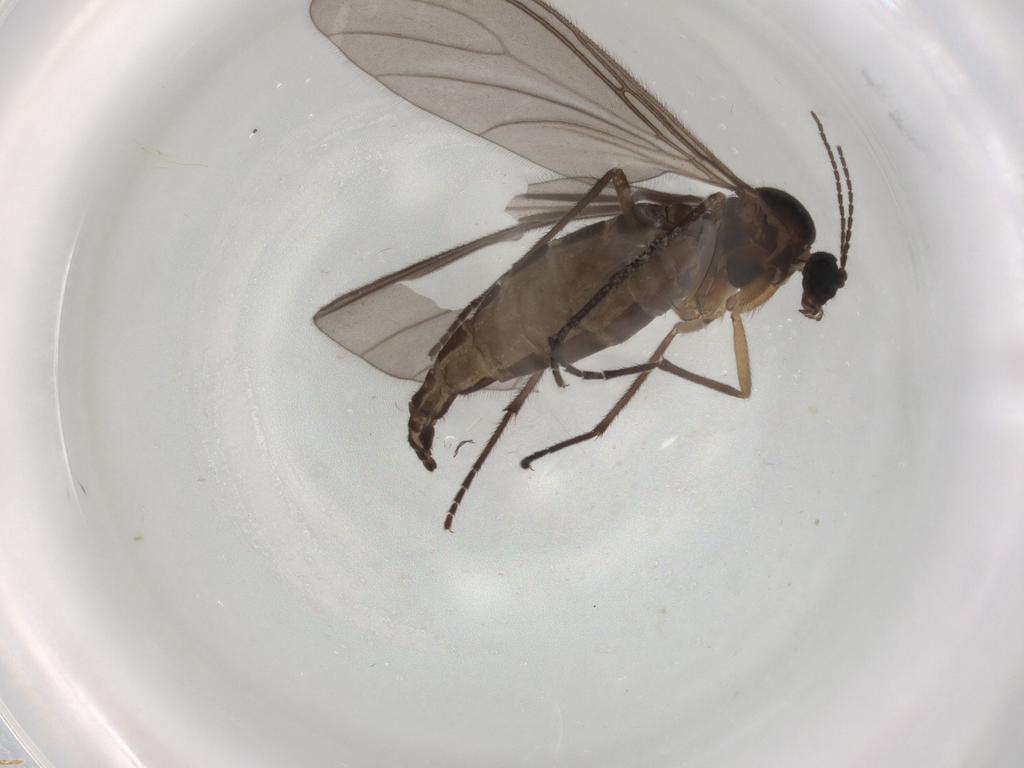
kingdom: Animalia
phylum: Arthropoda
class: Insecta
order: Diptera
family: Sciaridae
